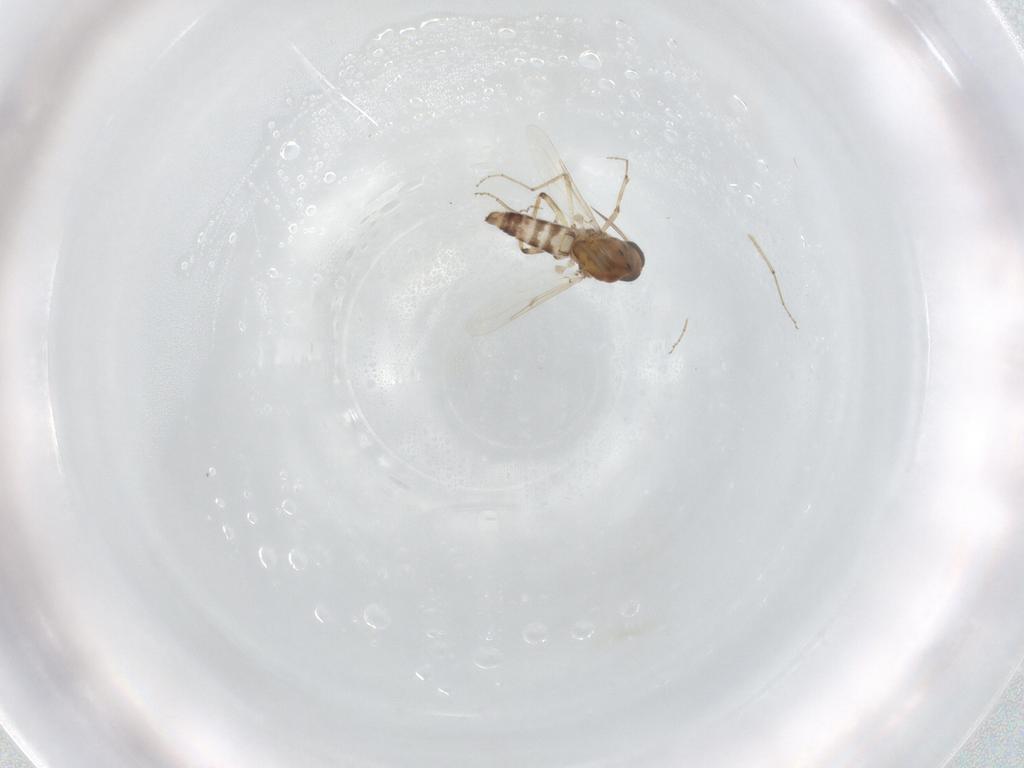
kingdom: Animalia
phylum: Arthropoda
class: Insecta
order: Diptera
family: Ceratopogonidae
